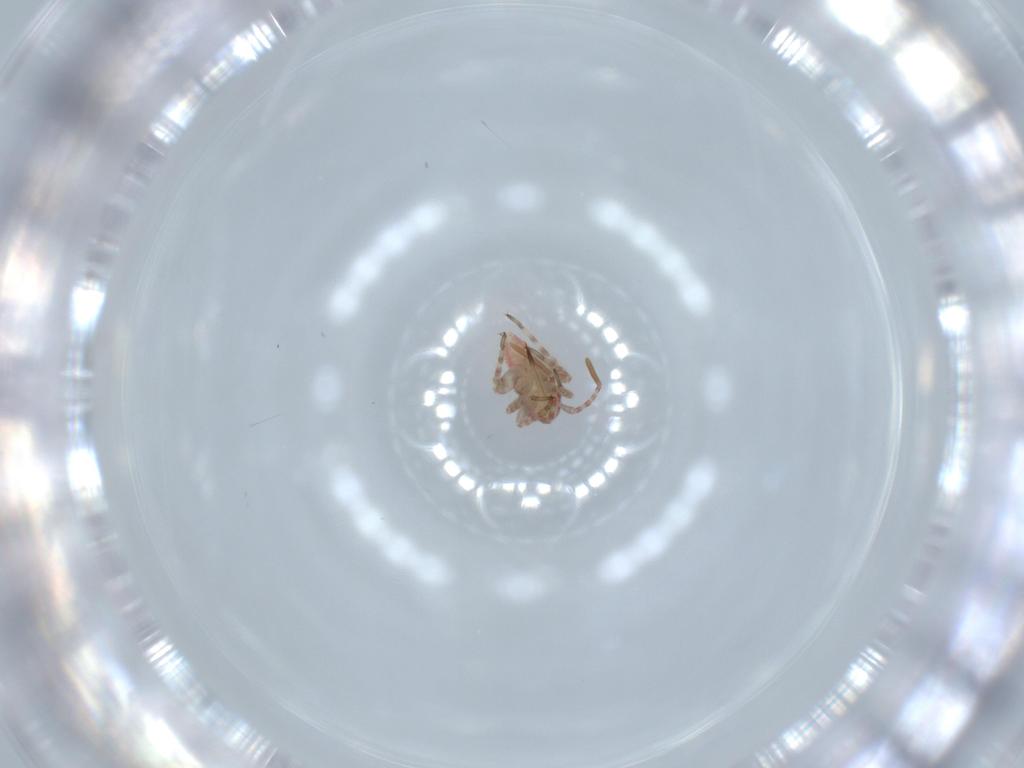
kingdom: Animalia
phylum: Arthropoda
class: Insecta
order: Hemiptera
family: Miridae
